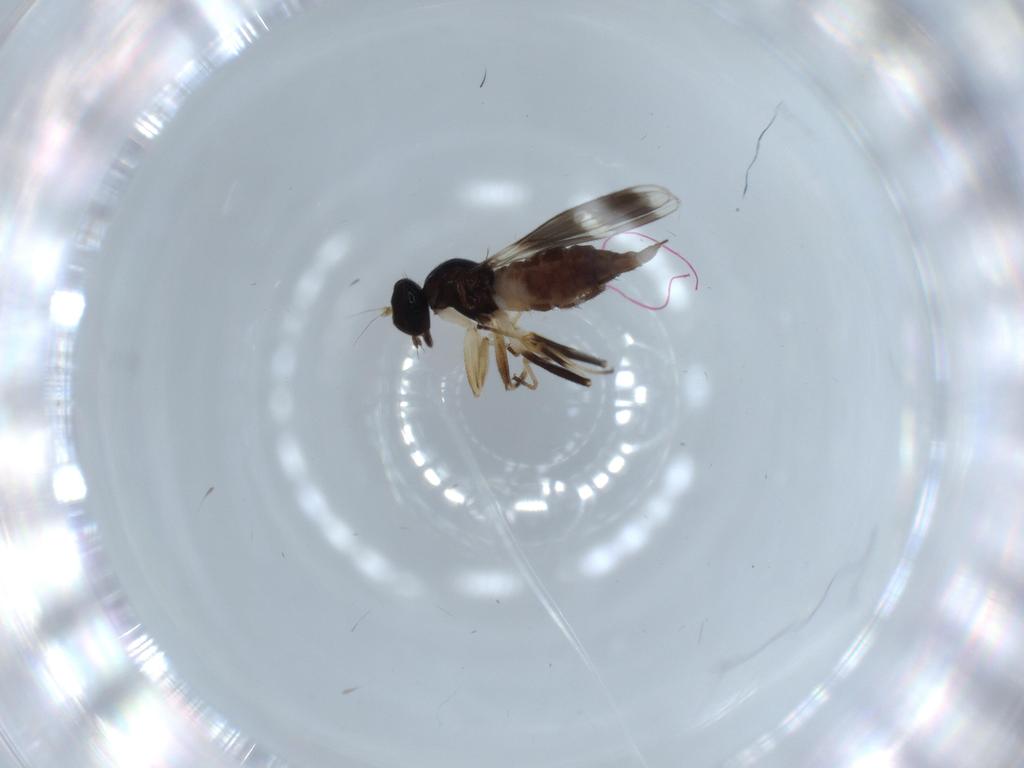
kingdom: Animalia
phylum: Arthropoda
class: Insecta
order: Diptera
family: Hybotidae
